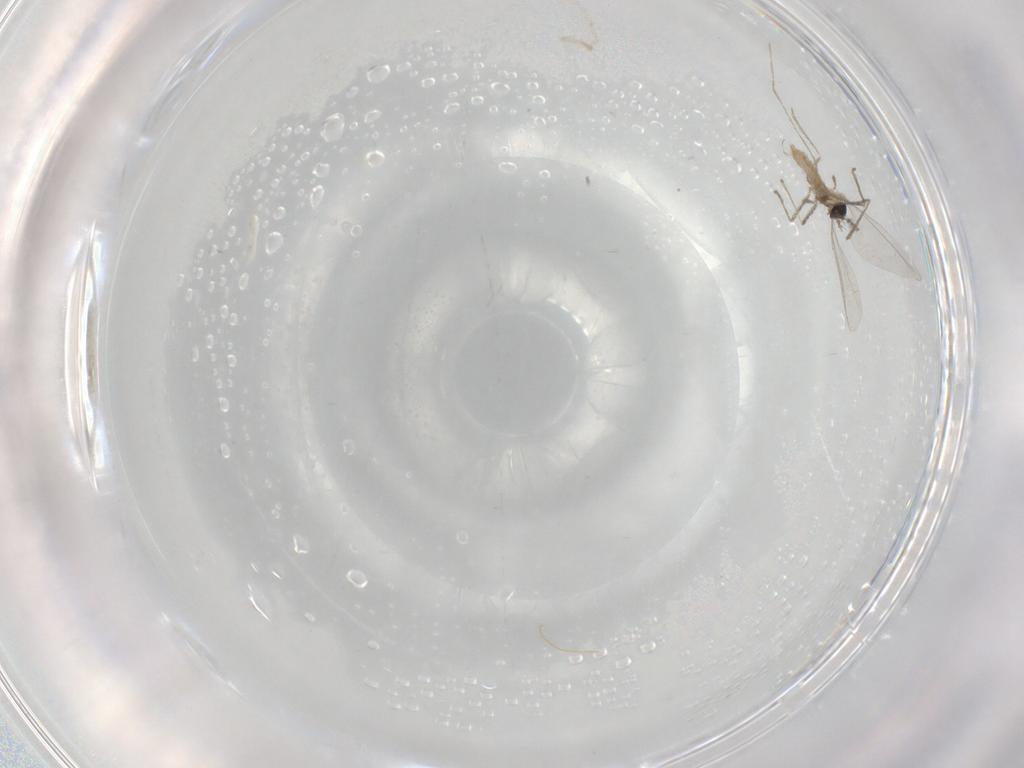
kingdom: Animalia
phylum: Arthropoda
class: Insecta
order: Diptera
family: Cecidomyiidae
